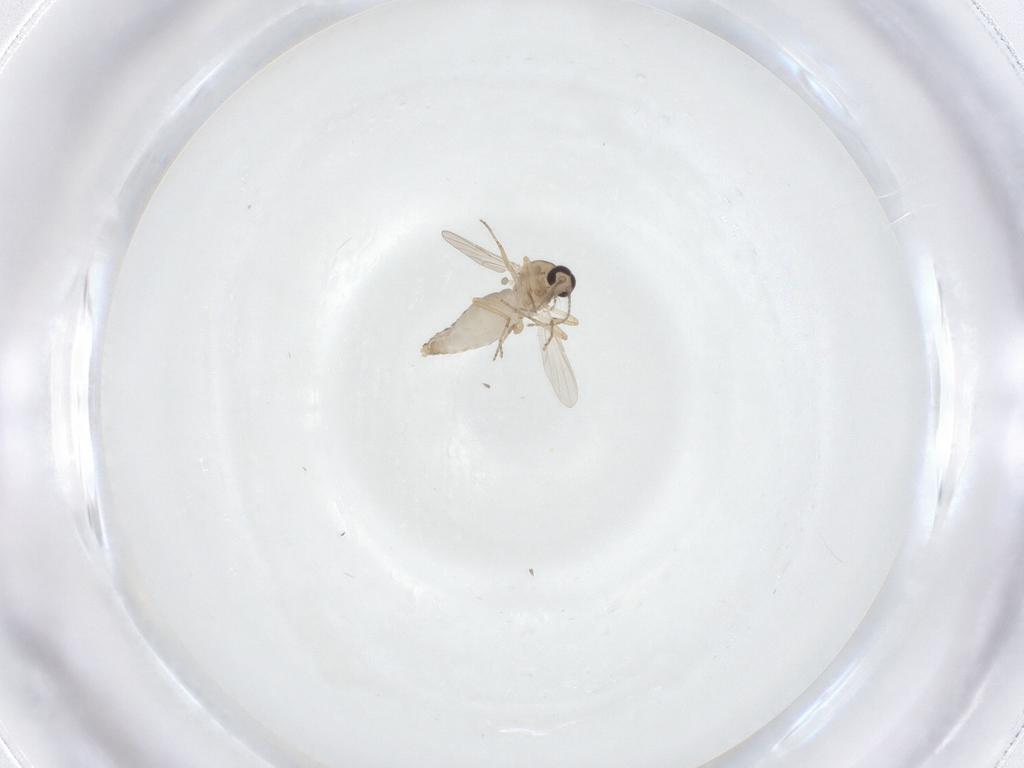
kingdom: Animalia
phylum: Arthropoda
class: Insecta
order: Diptera
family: Ceratopogonidae
